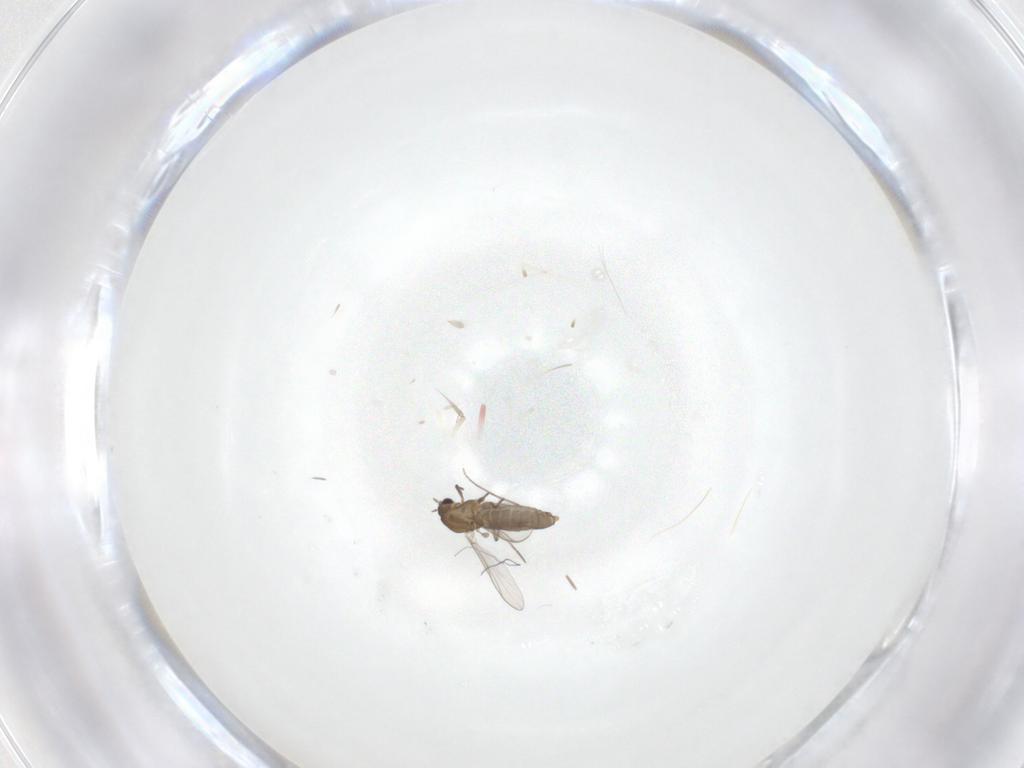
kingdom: Animalia
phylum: Arthropoda
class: Insecta
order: Diptera
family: Chironomidae
